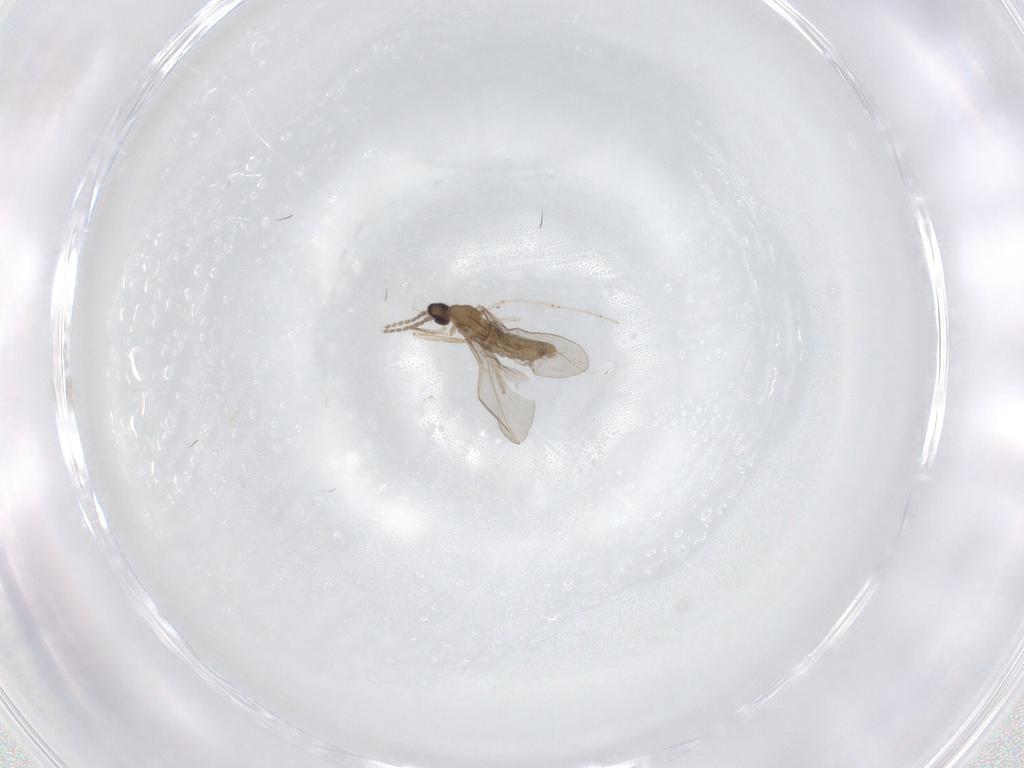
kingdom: Animalia
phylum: Arthropoda
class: Insecta
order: Diptera
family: Cecidomyiidae
